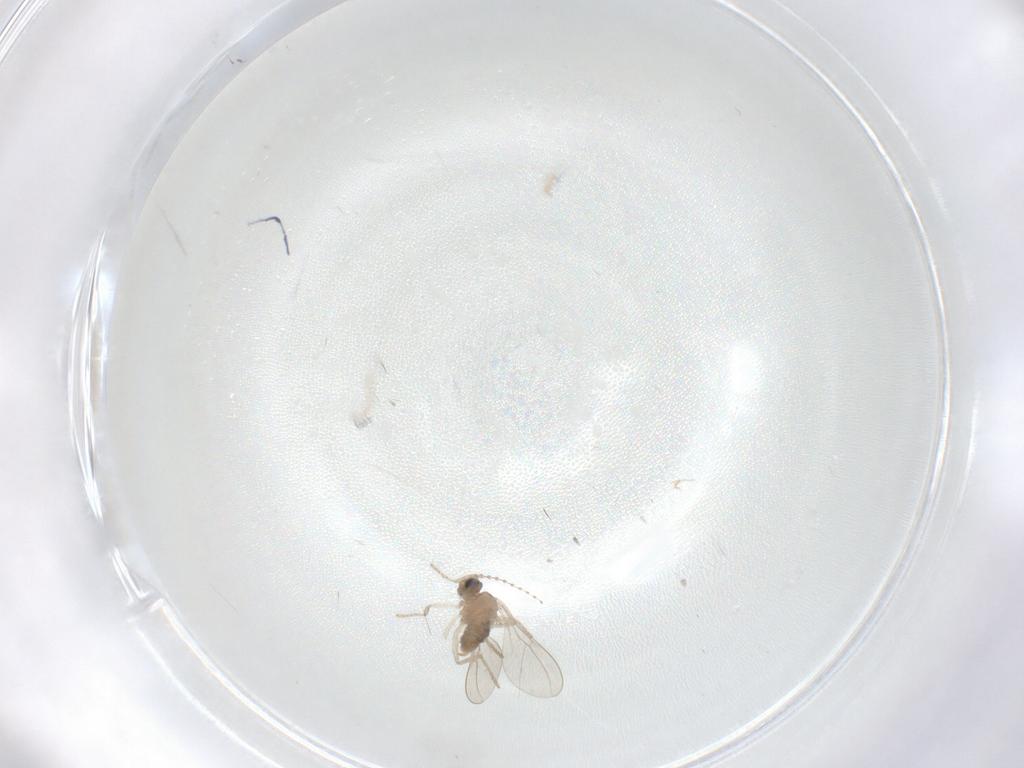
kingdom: Animalia
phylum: Arthropoda
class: Insecta
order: Diptera
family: Cecidomyiidae
